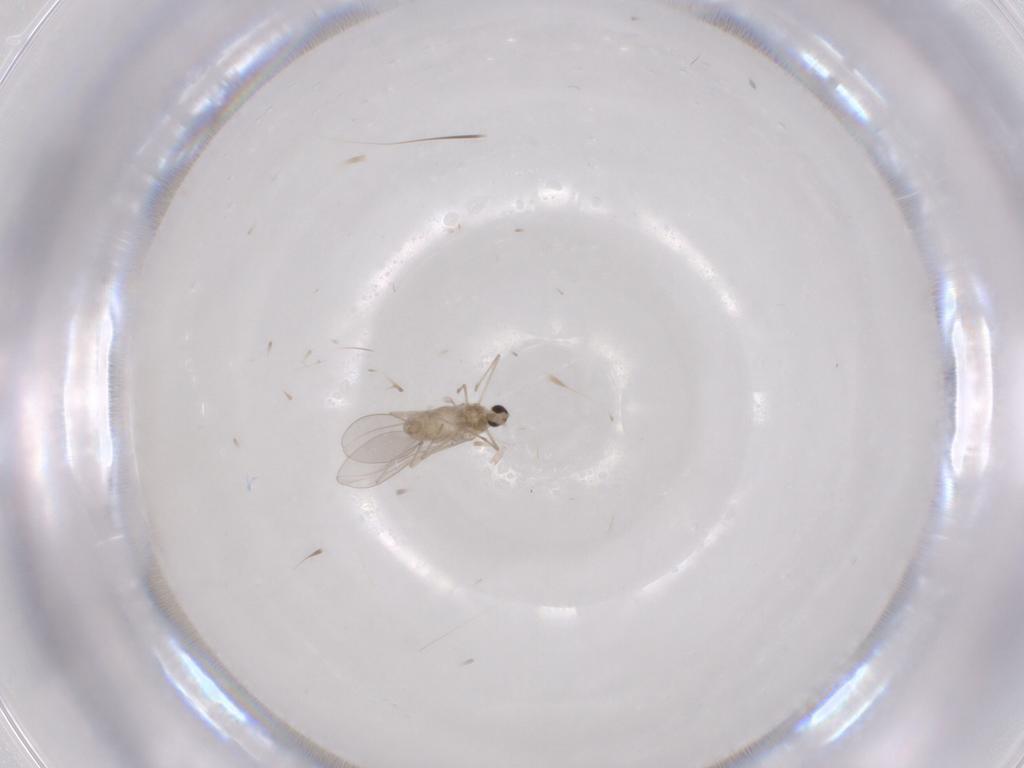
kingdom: Animalia
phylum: Arthropoda
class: Insecta
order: Diptera
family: Cecidomyiidae
